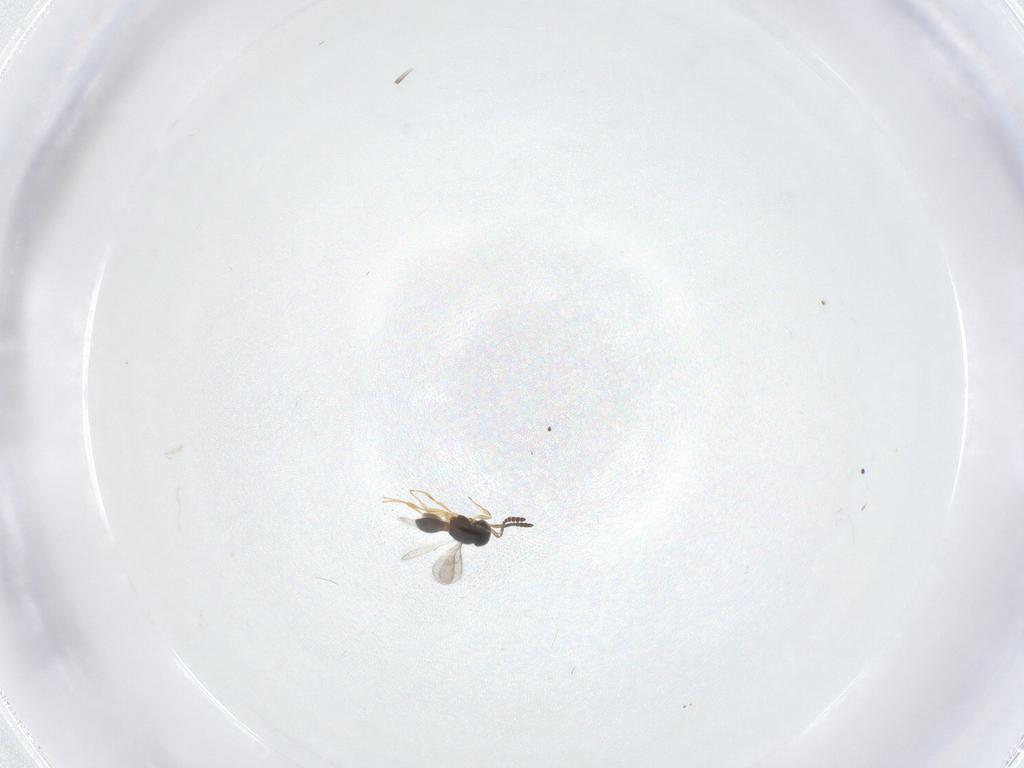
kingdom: Animalia
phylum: Arthropoda
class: Insecta
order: Hymenoptera
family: Scelionidae
